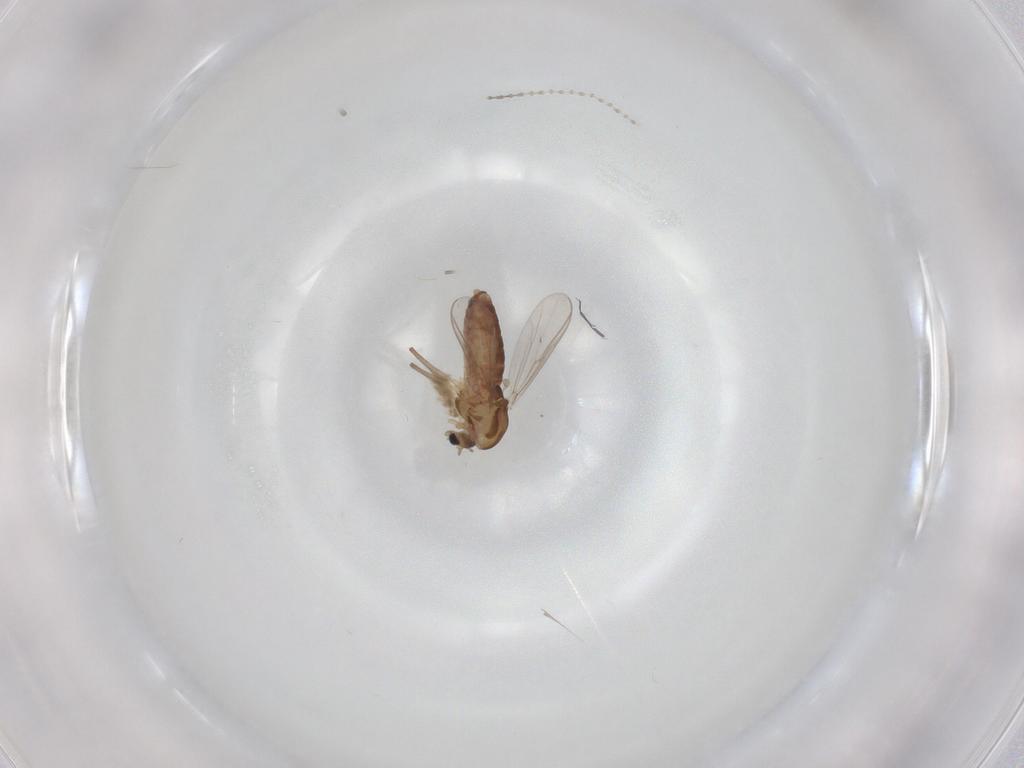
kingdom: Animalia
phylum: Arthropoda
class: Insecta
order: Diptera
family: Cecidomyiidae
